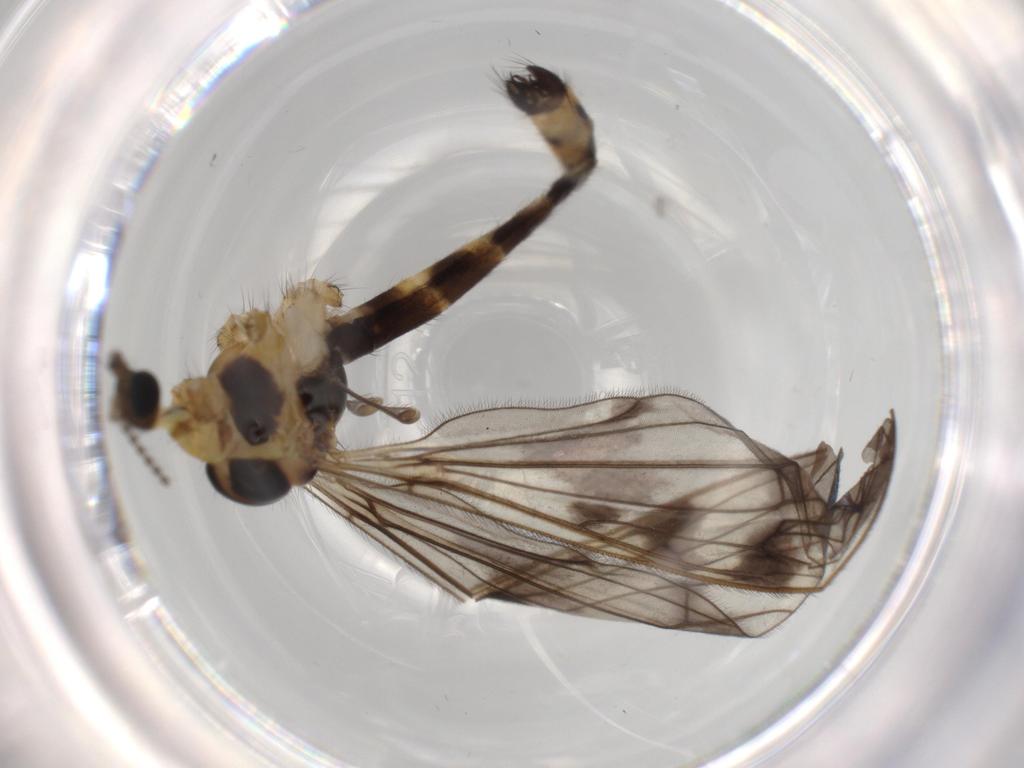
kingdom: Animalia
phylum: Arthropoda
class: Insecta
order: Diptera
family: Limoniidae
